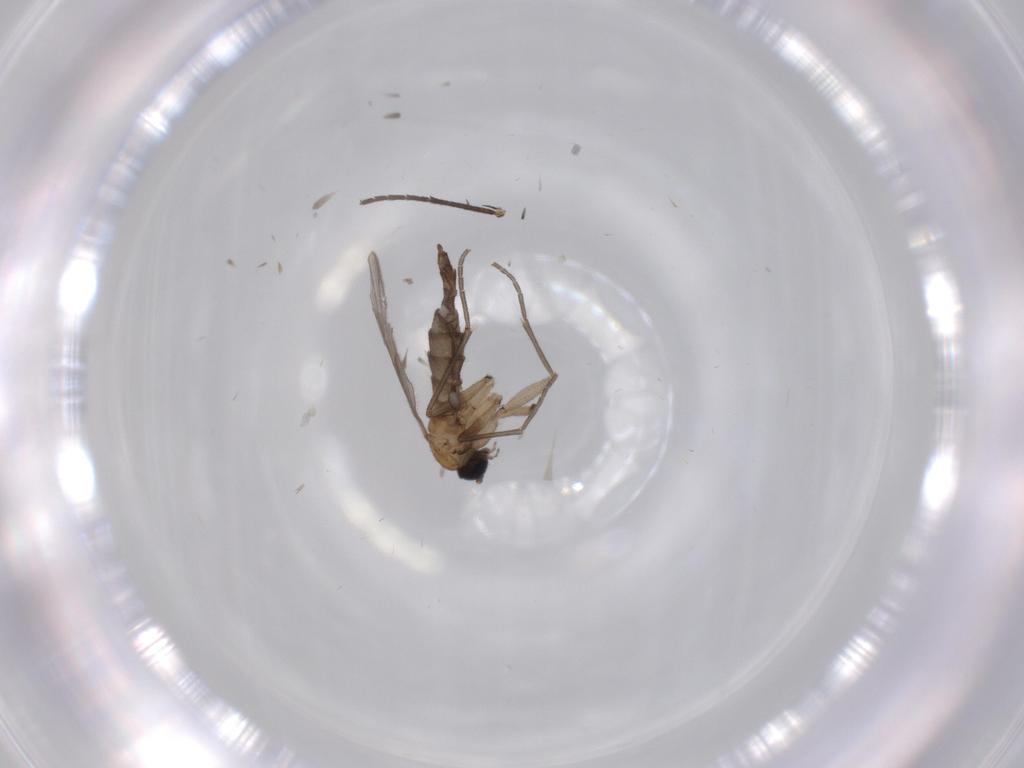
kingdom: Animalia
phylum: Arthropoda
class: Insecta
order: Diptera
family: Sciaridae
